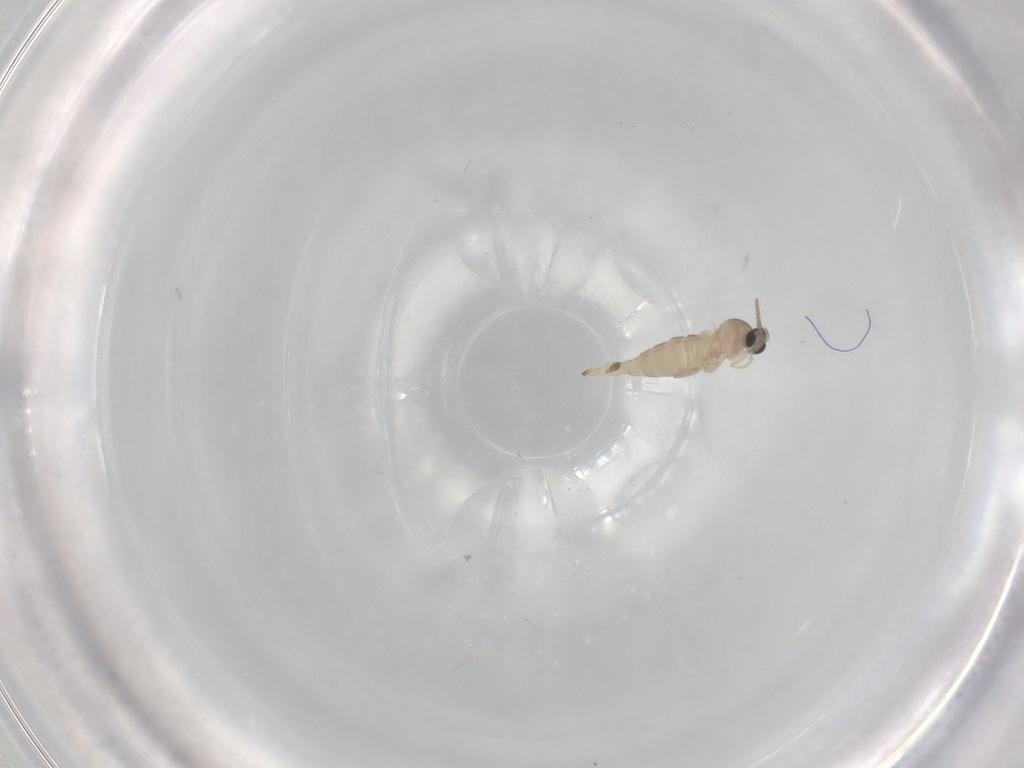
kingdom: Animalia
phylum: Arthropoda
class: Insecta
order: Diptera
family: Cecidomyiidae
